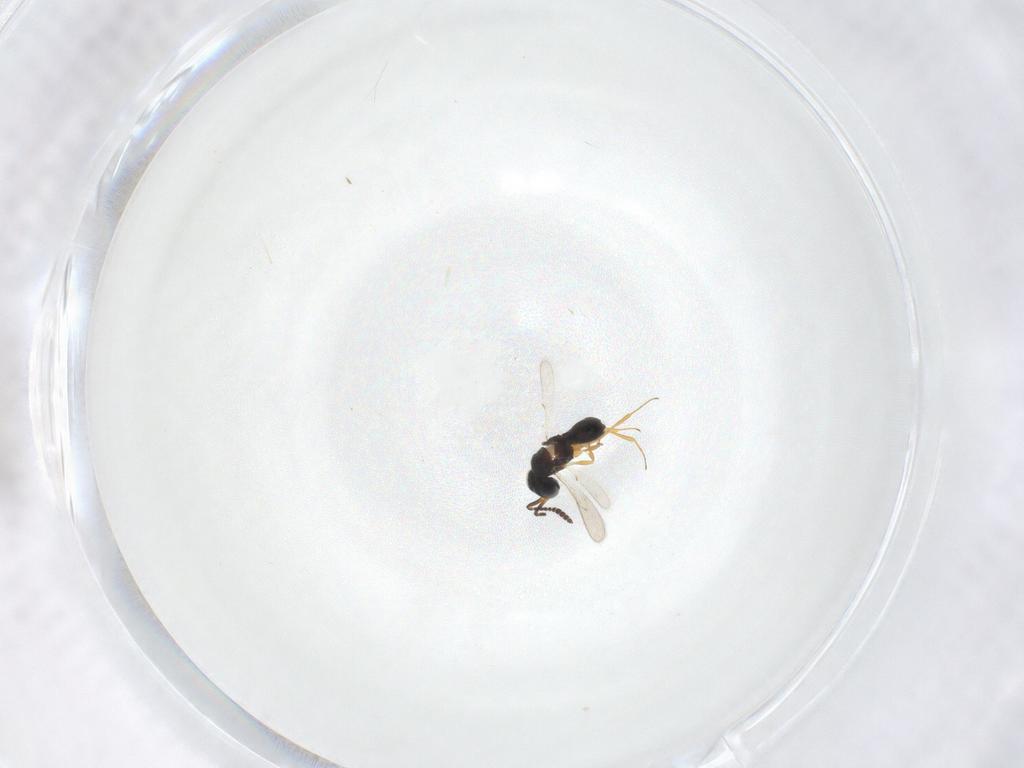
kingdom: Animalia
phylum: Arthropoda
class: Insecta
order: Hymenoptera
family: Scelionidae
